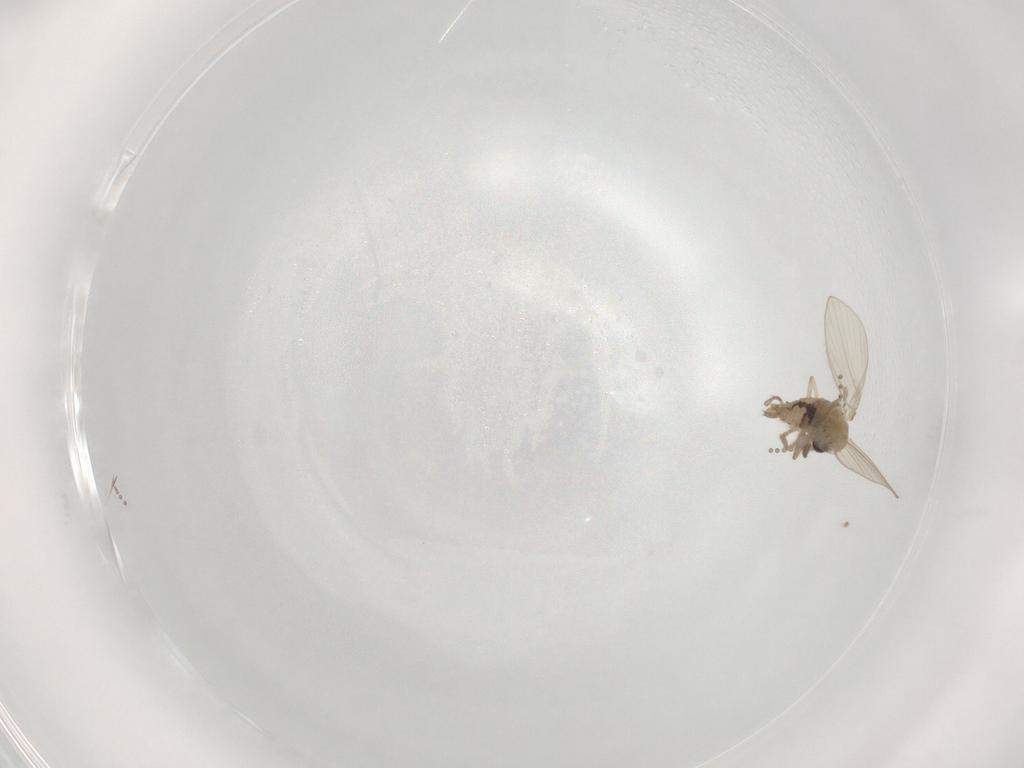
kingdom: Animalia
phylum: Arthropoda
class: Insecta
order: Diptera
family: Psychodidae
